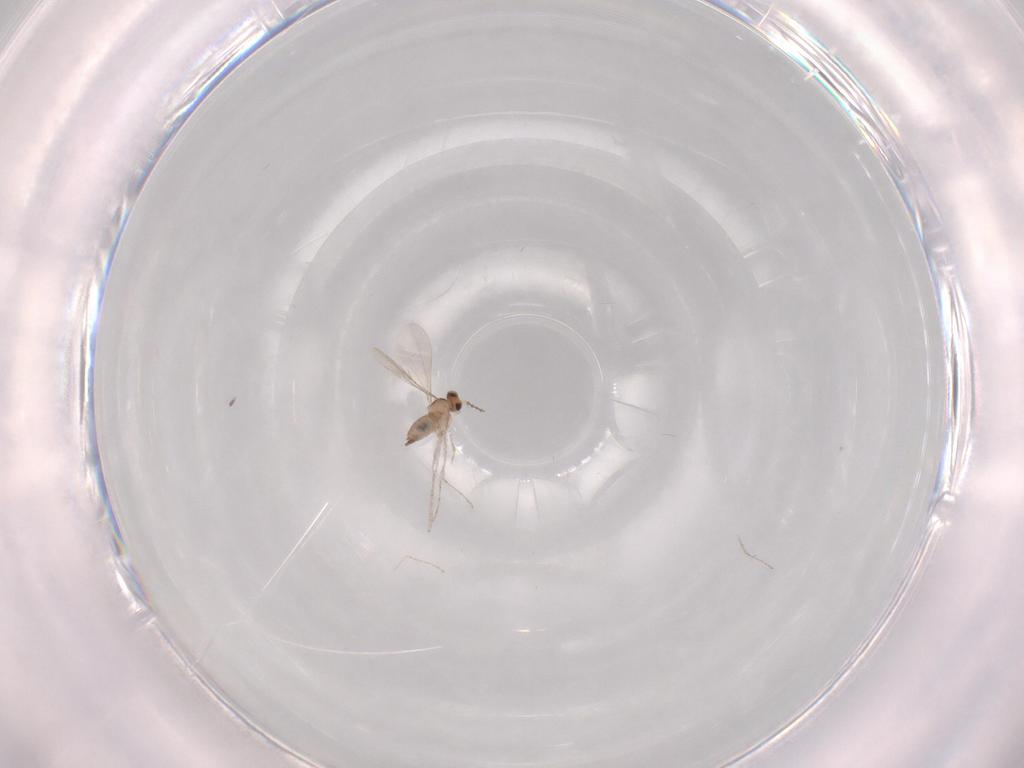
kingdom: Animalia
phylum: Arthropoda
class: Insecta
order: Diptera
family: Cecidomyiidae
